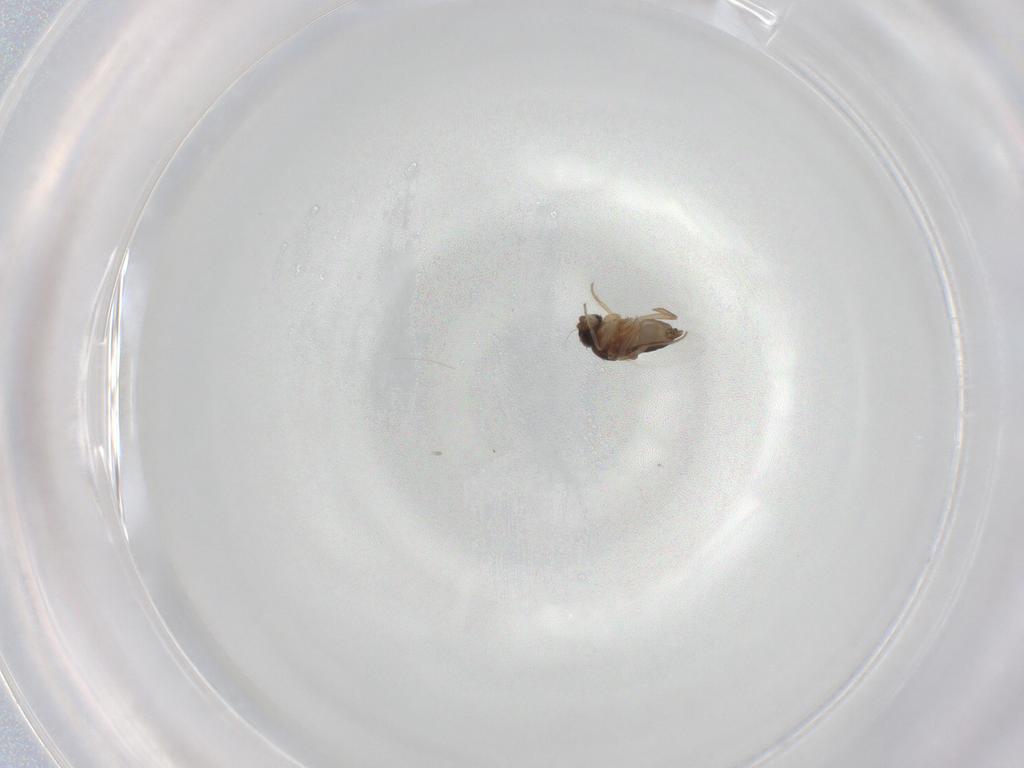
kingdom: Animalia
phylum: Arthropoda
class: Insecta
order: Diptera
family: Phoridae
